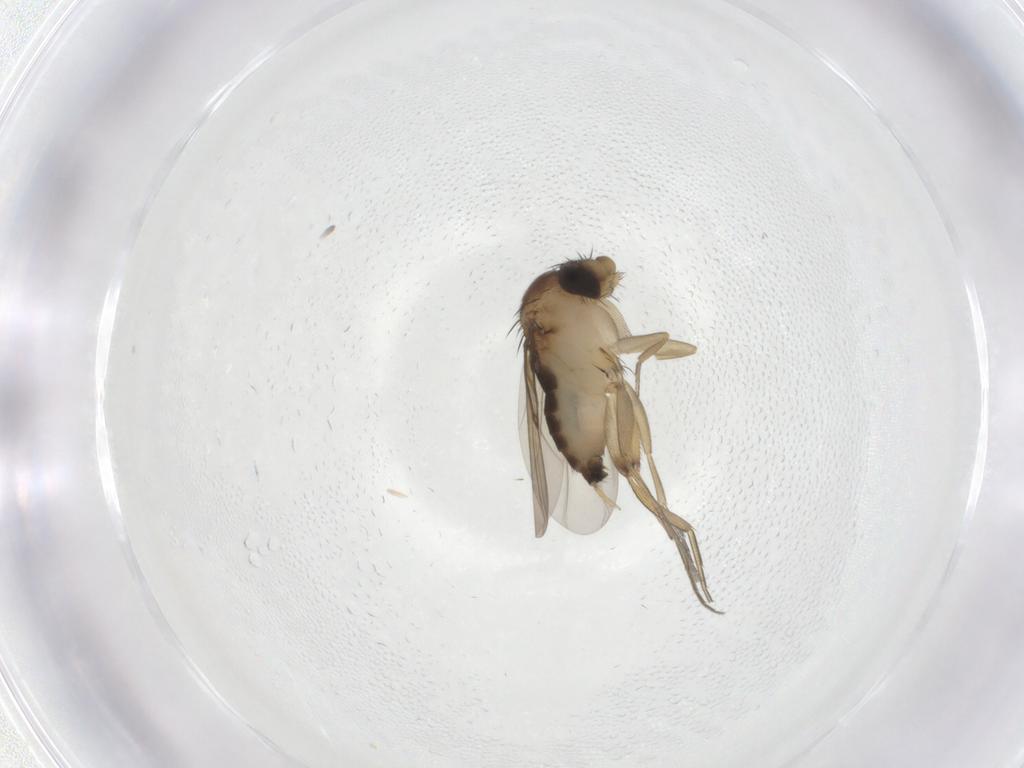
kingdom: Animalia
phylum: Arthropoda
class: Insecta
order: Diptera
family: Phoridae
